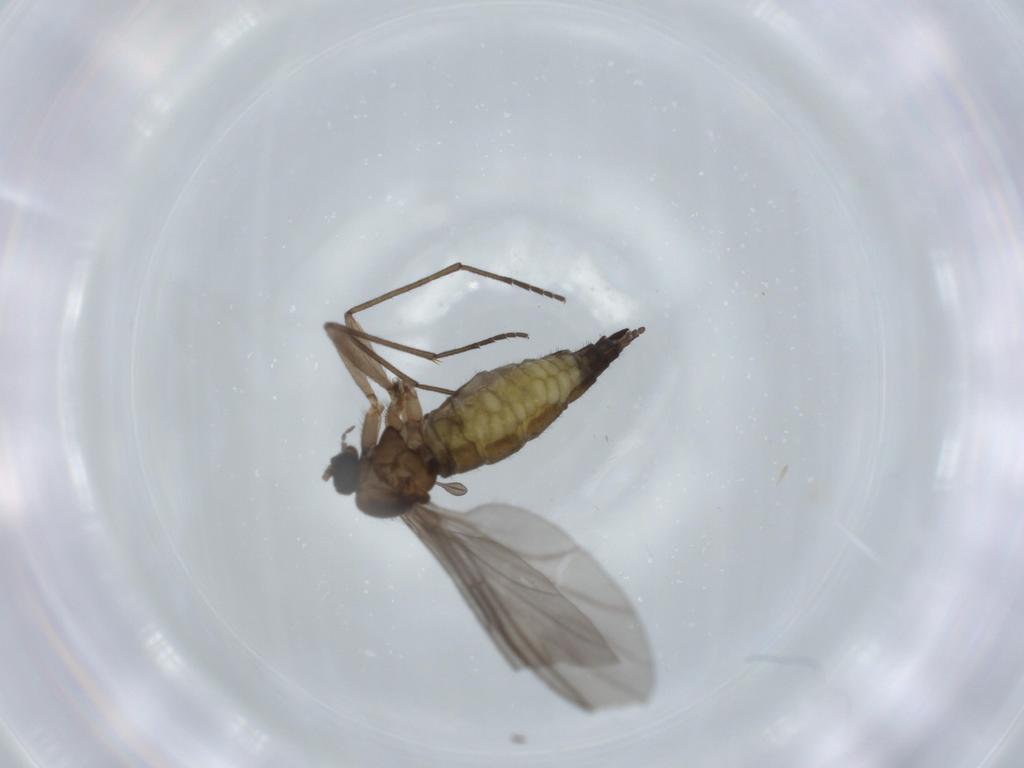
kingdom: Animalia
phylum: Arthropoda
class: Insecta
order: Diptera
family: Sciaridae
